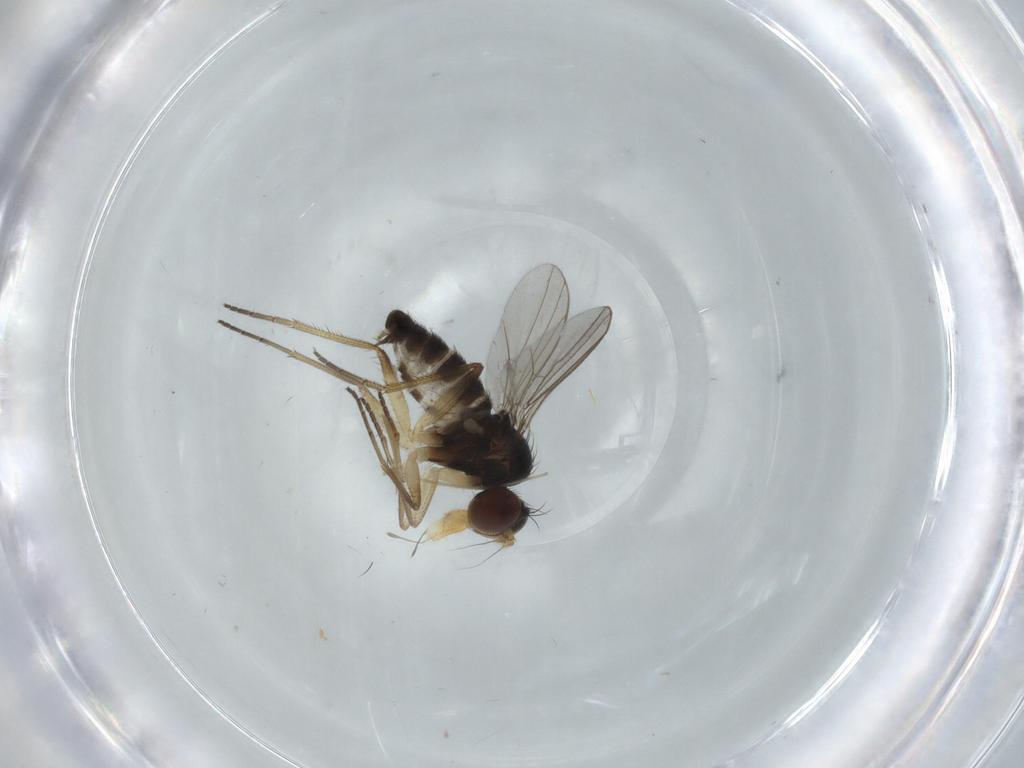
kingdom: Animalia
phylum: Arthropoda
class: Insecta
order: Diptera
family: Dolichopodidae
